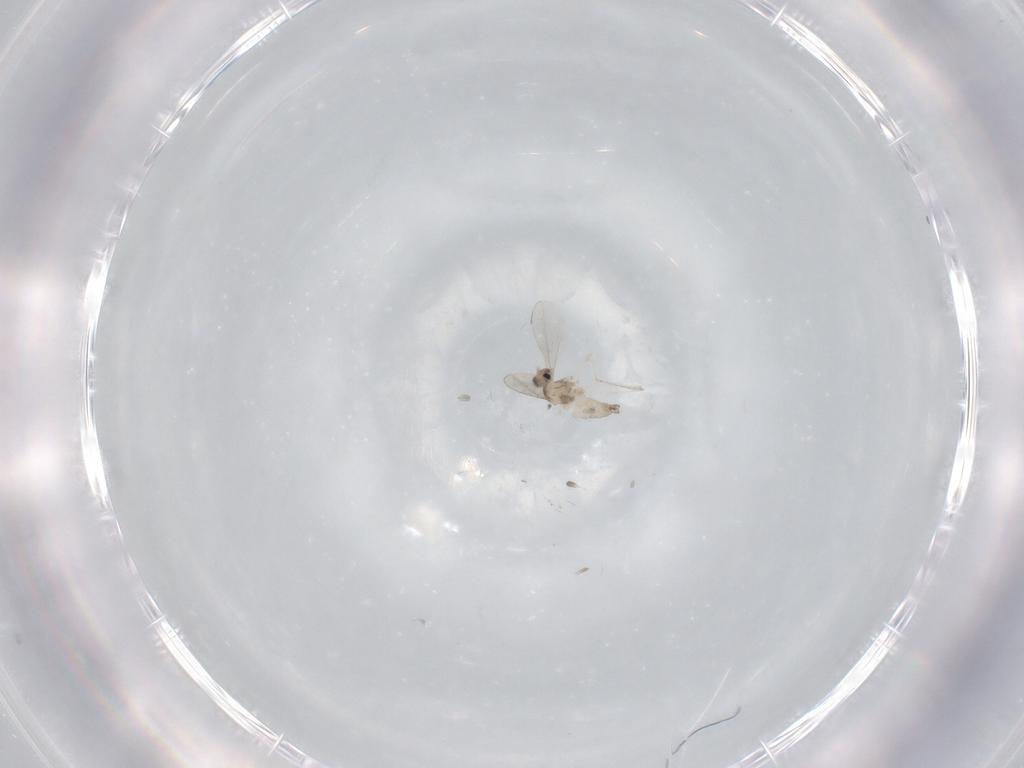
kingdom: Animalia
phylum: Arthropoda
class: Insecta
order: Diptera
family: Cecidomyiidae
